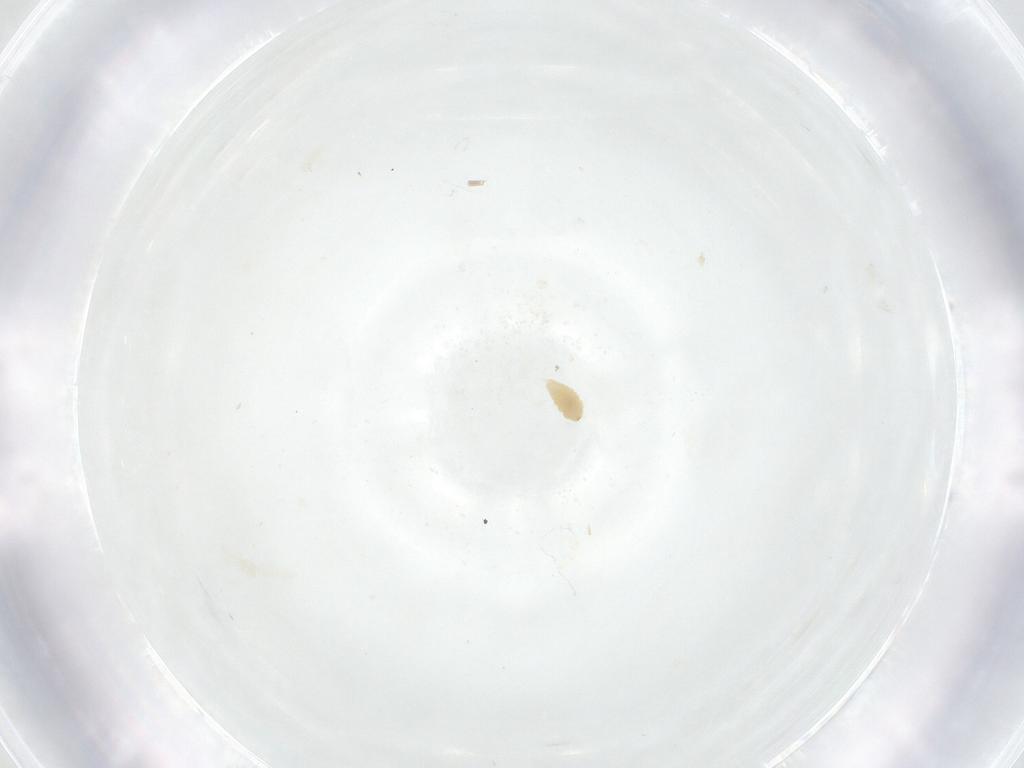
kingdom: Animalia
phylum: Arthropoda
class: Insecta
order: Diptera
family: Fergusoninidae
